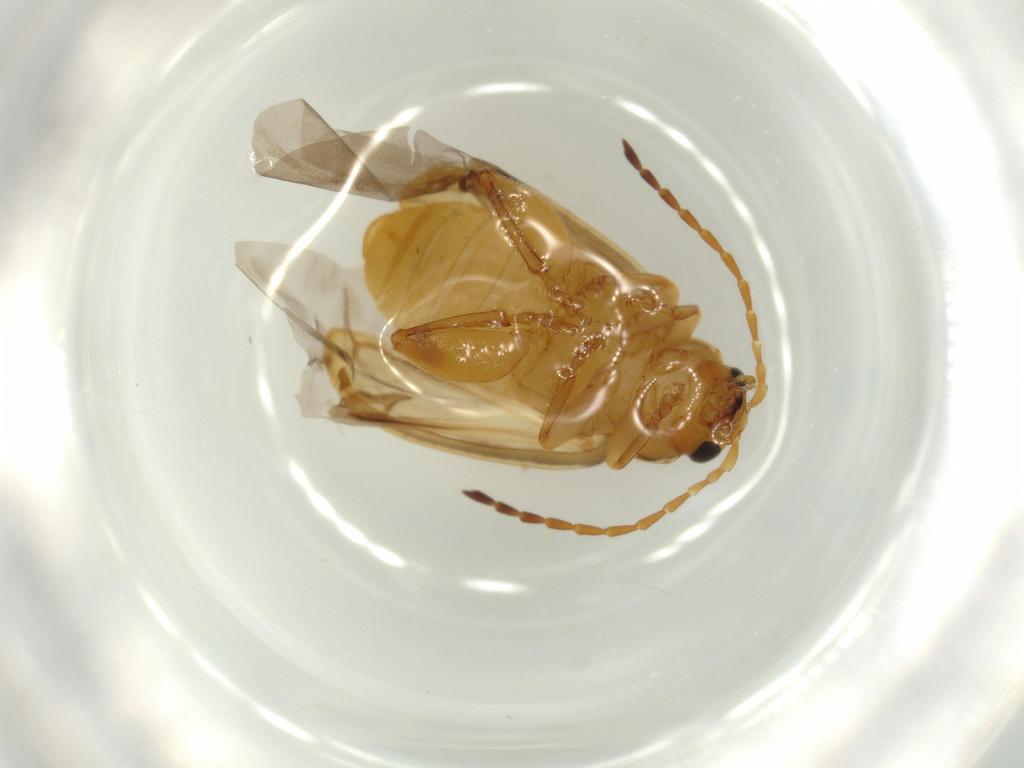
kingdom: Animalia
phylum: Arthropoda
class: Insecta
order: Coleoptera
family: Chrysomelidae
